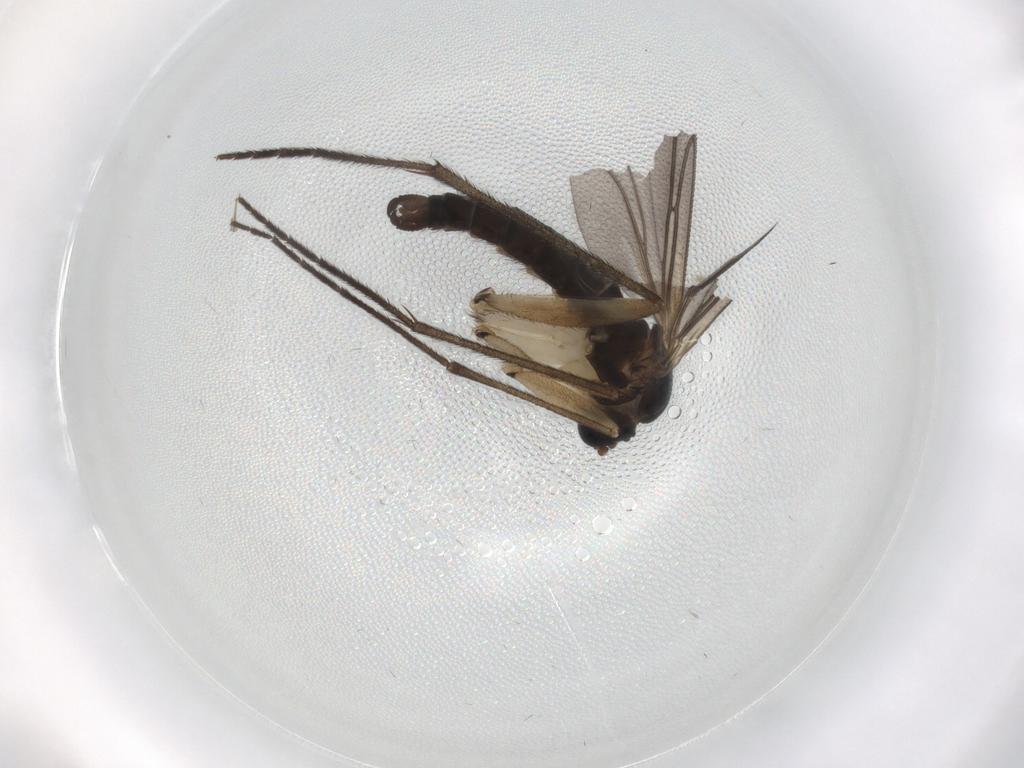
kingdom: Animalia
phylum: Arthropoda
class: Insecta
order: Diptera
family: Sciaridae
